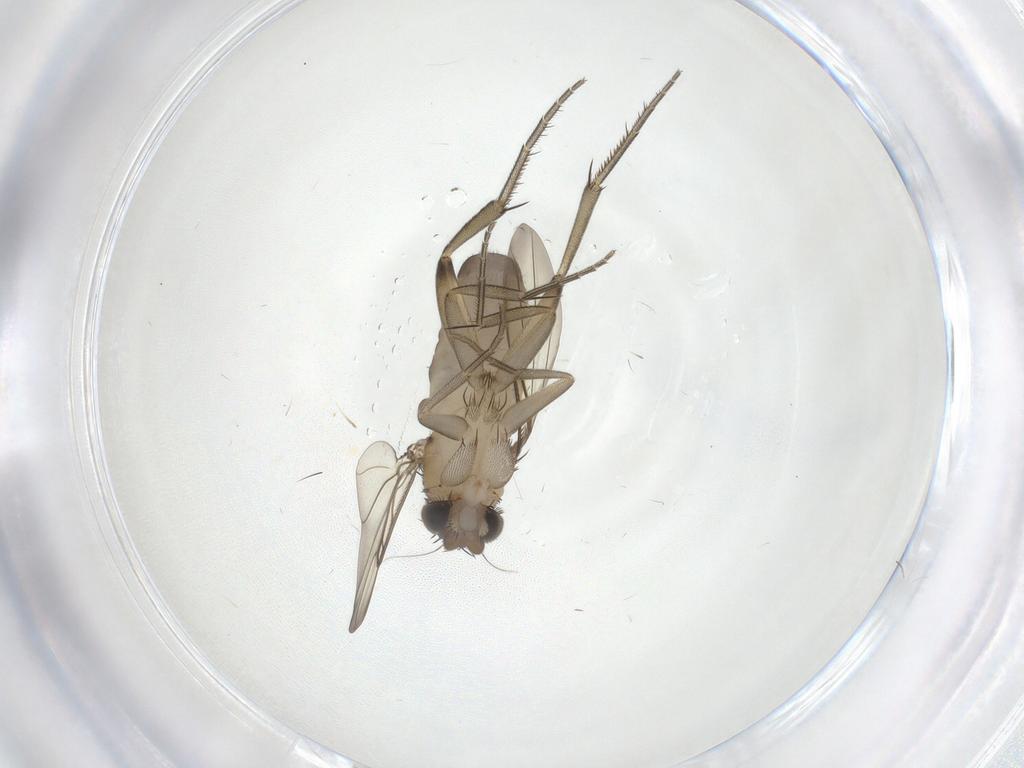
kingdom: Animalia
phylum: Arthropoda
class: Insecta
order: Diptera
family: Phoridae
